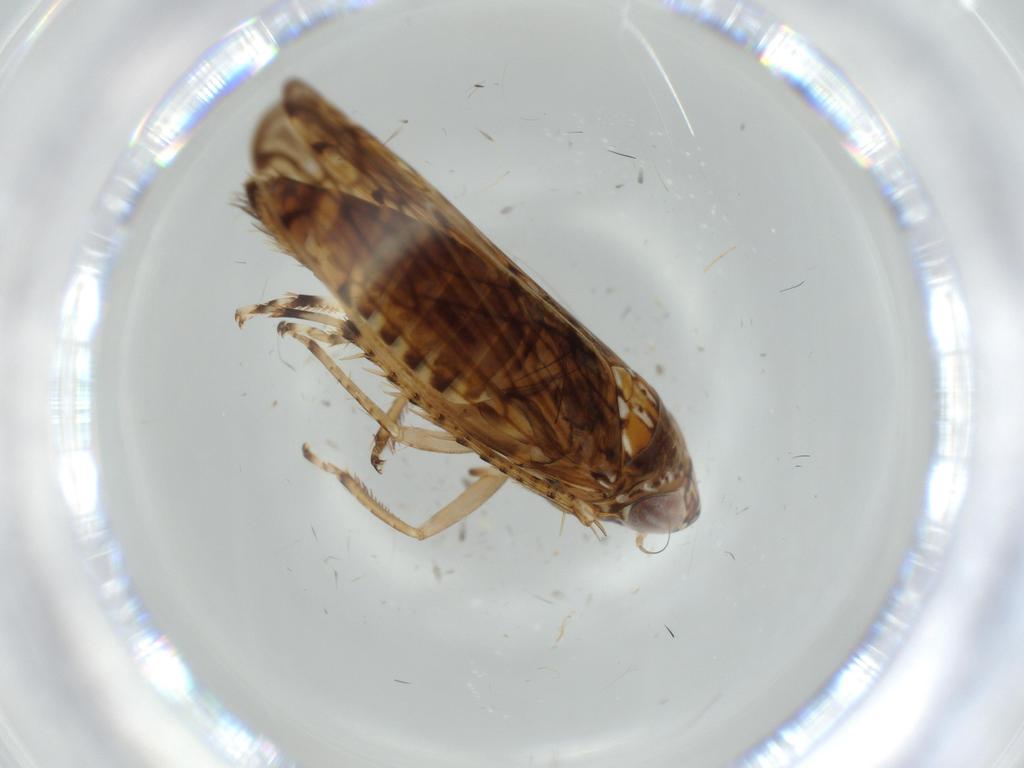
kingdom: Animalia
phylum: Arthropoda
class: Insecta
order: Hemiptera
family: Cicadellidae
